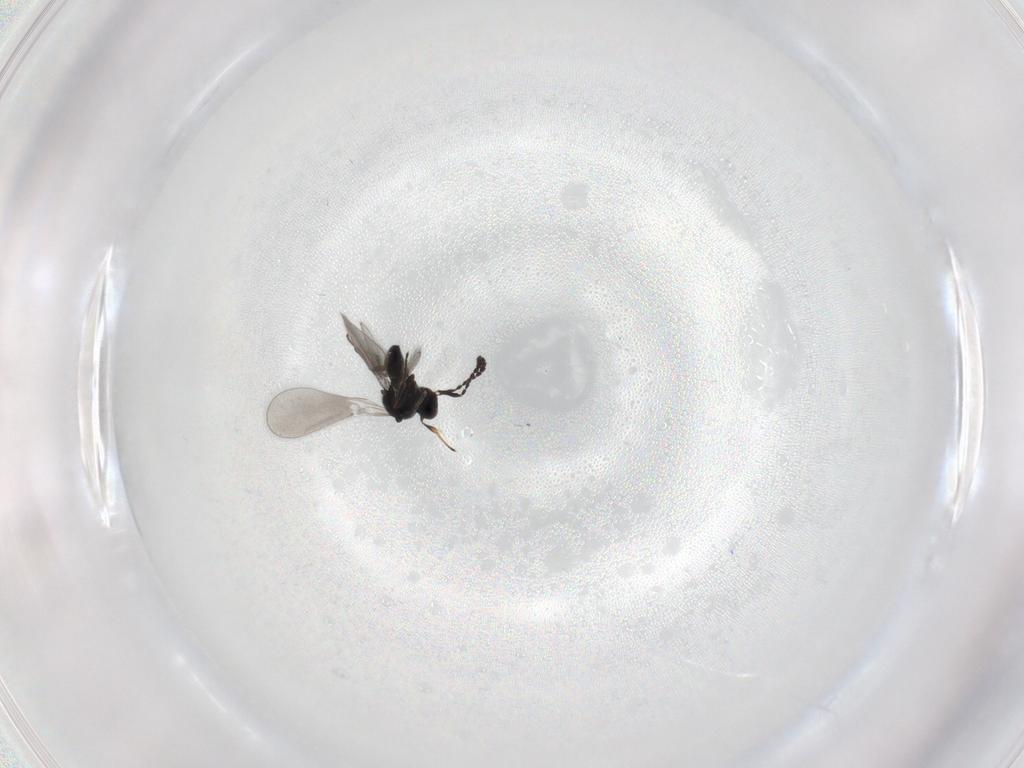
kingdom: Animalia
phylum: Arthropoda
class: Insecta
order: Hymenoptera
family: Platygastridae
